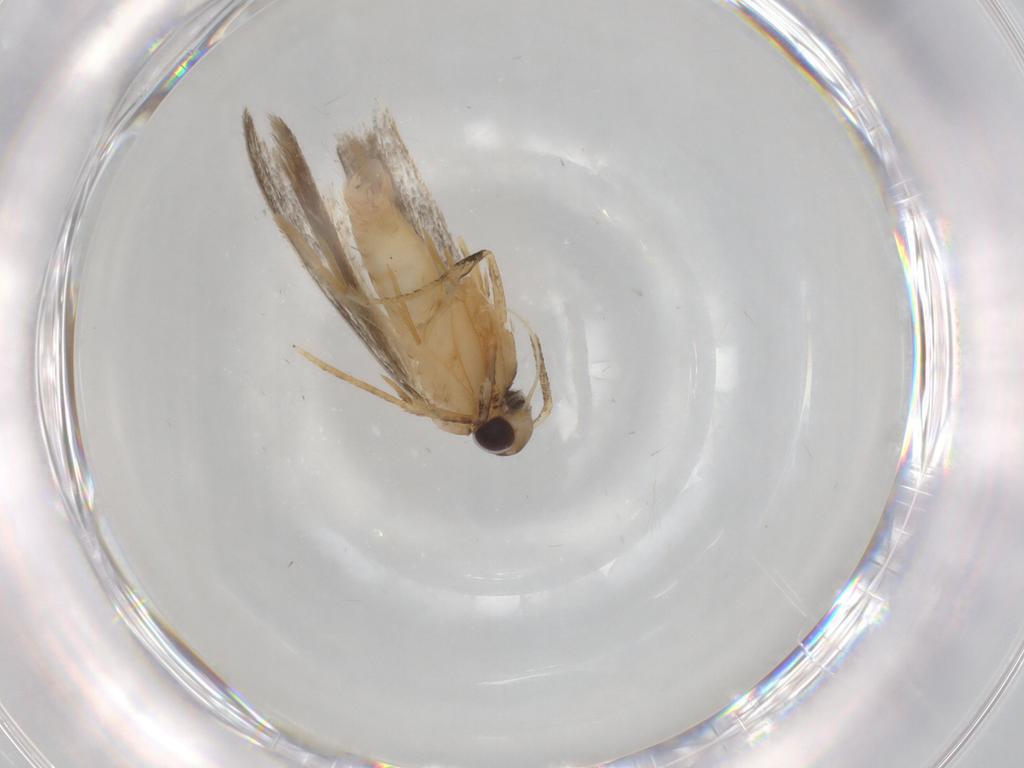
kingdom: Animalia
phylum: Arthropoda
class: Insecta
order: Lepidoptera
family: Autostichidae
